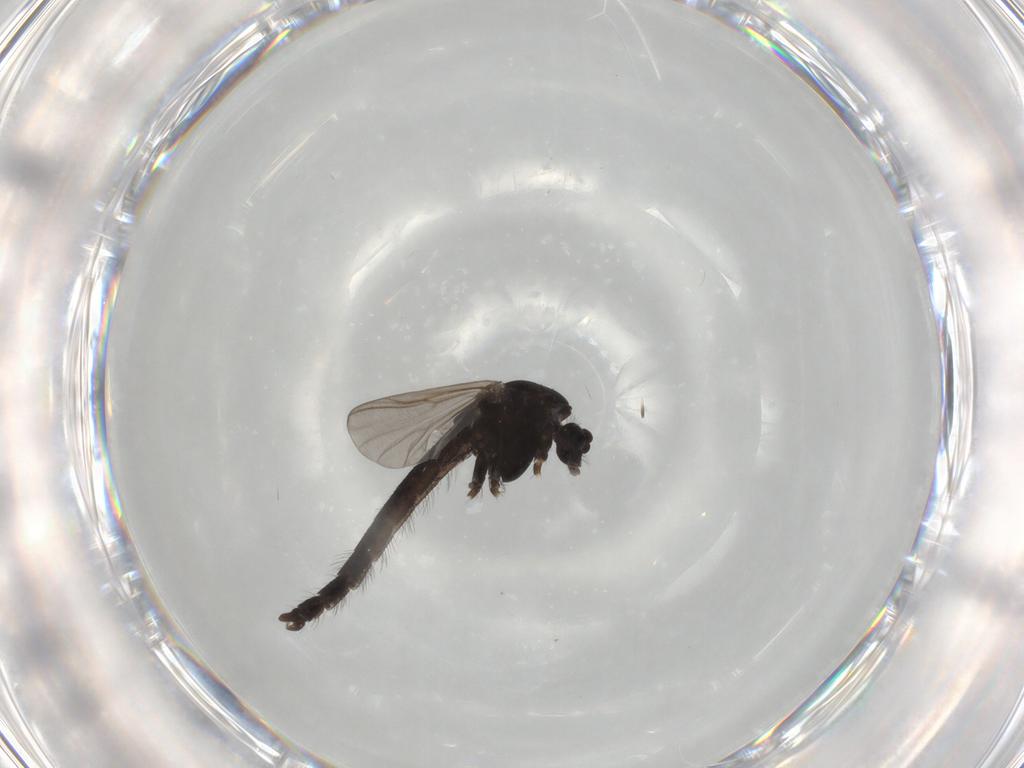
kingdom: Animalia
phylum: Arthropoda
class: Insecta
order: Diptera
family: Chironomidae
